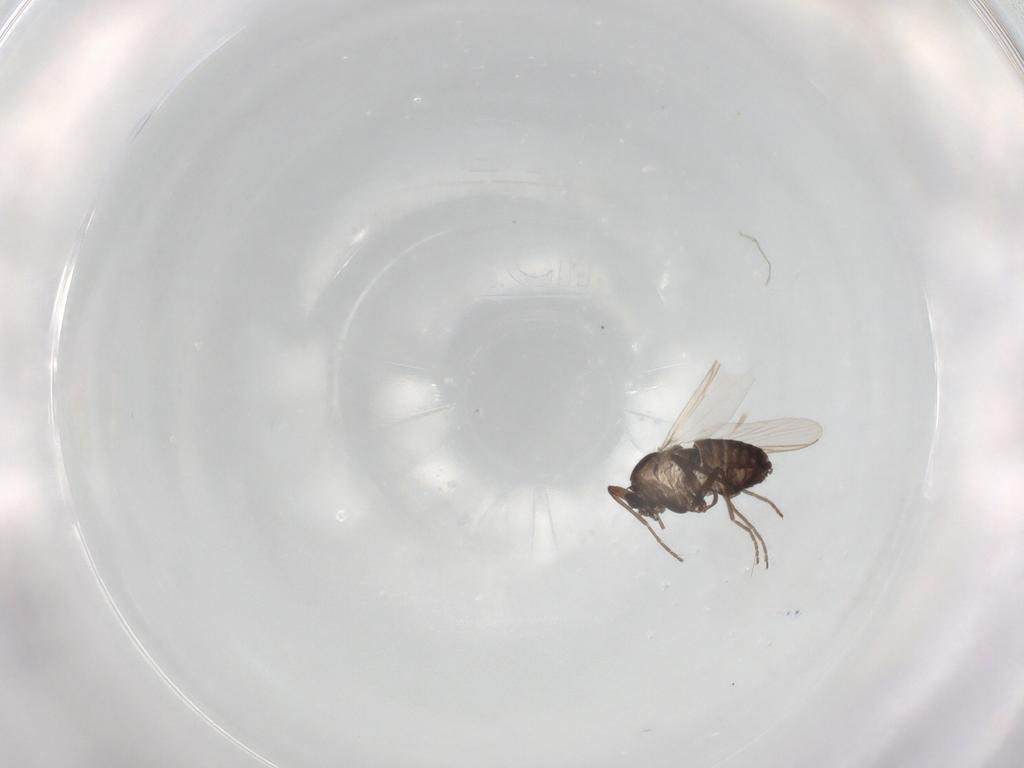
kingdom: Animalia
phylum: Arthropoda
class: Insecta
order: Diptera
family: Chironomidae
